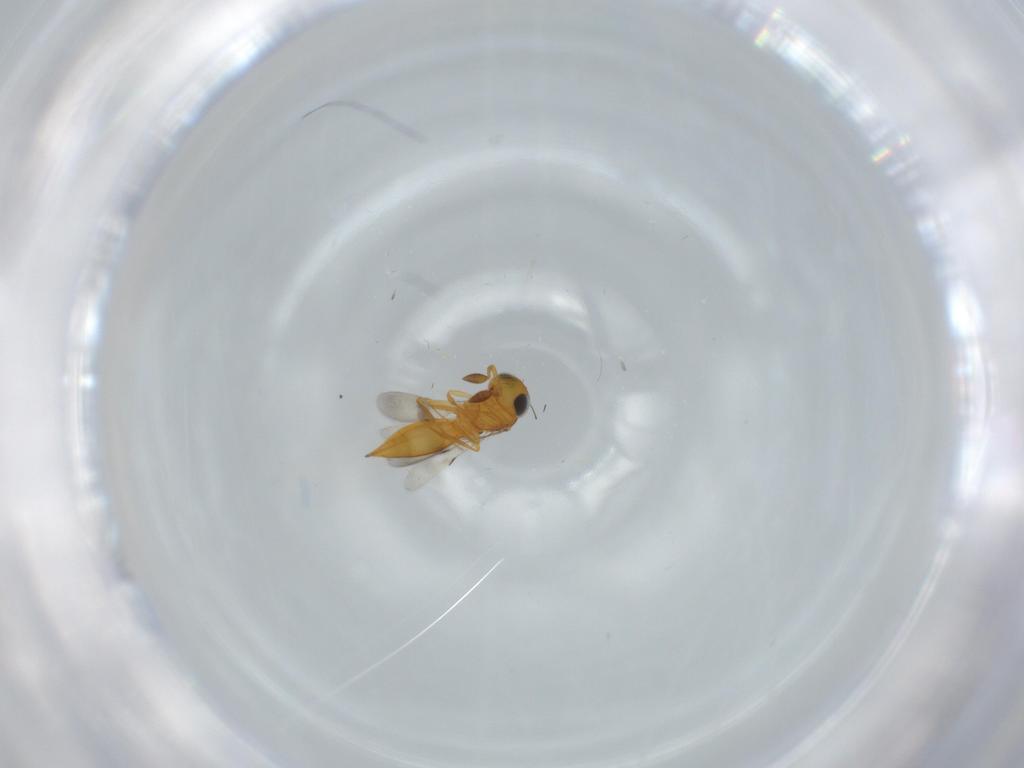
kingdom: Animalia
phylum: Arthropoda
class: Insecta
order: Hymenoptera
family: Scelionidae
